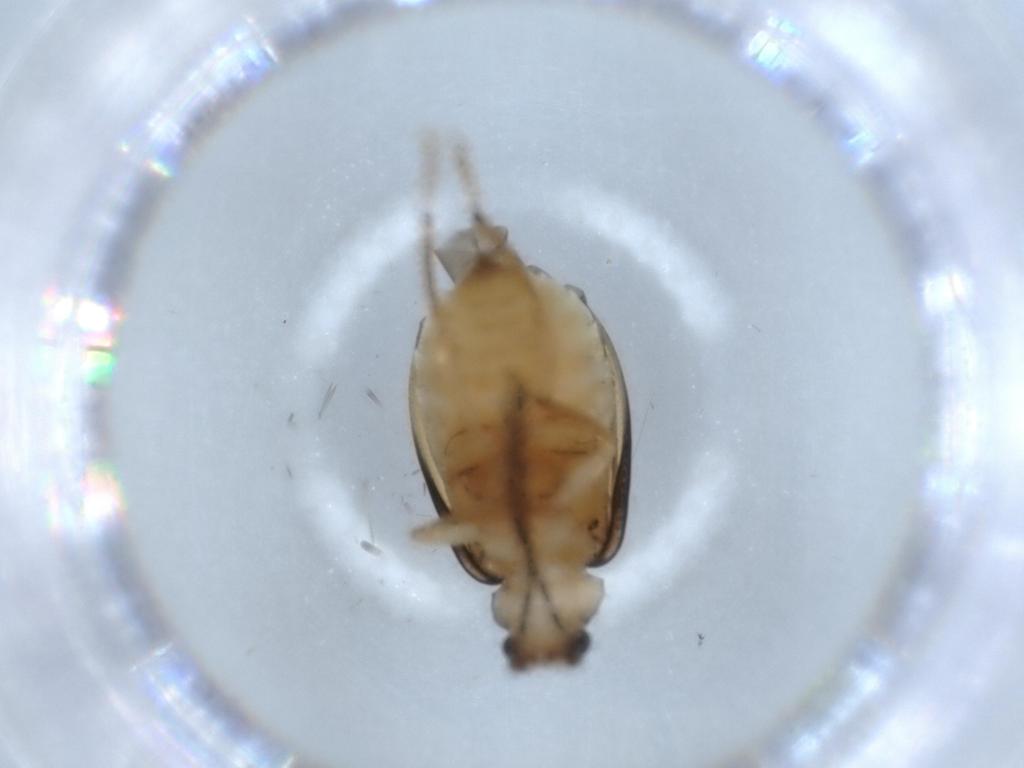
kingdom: Animalia
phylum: Arthropoda
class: Insecta
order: Coleoptera
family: Chrysomelidae
